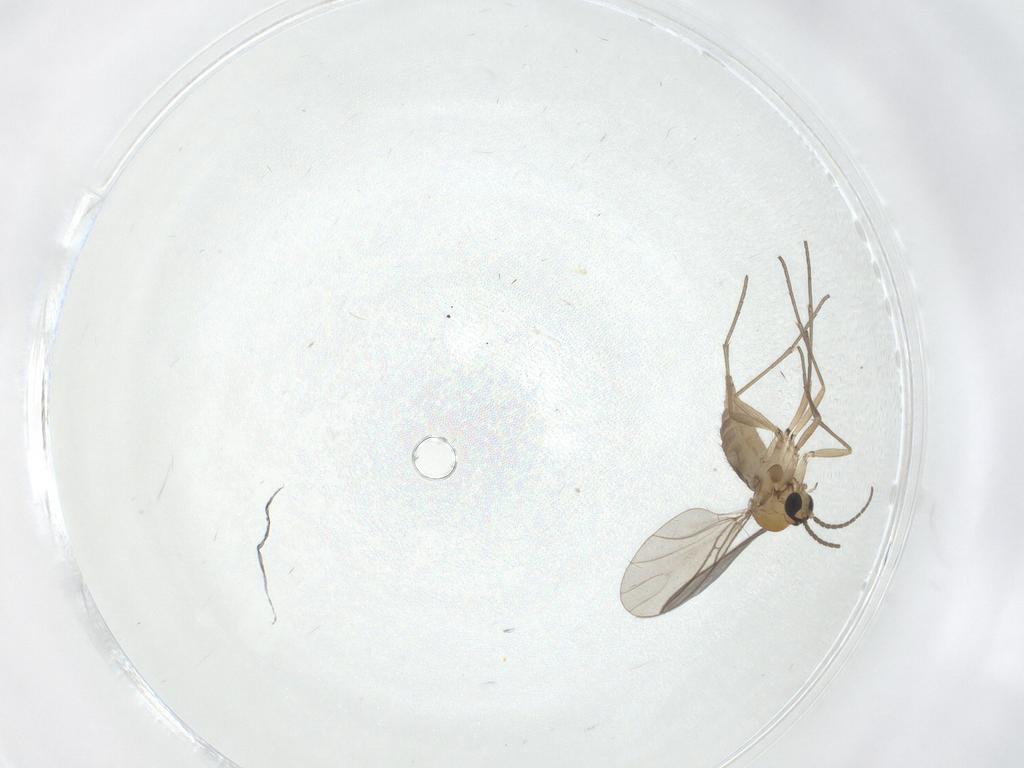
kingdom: Animalia
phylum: Arthropoda
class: Insecta
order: Diptera
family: Sciaridae
